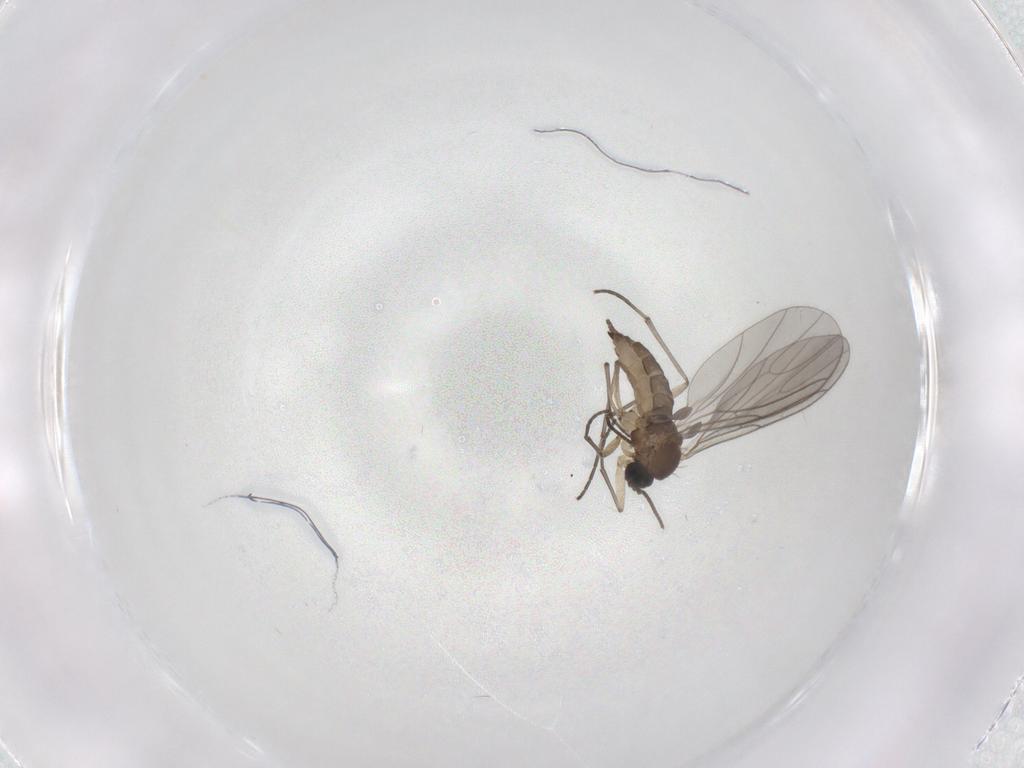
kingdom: Animalia
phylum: Arthropoda
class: Insecta
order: Diptera
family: Sciaridae
